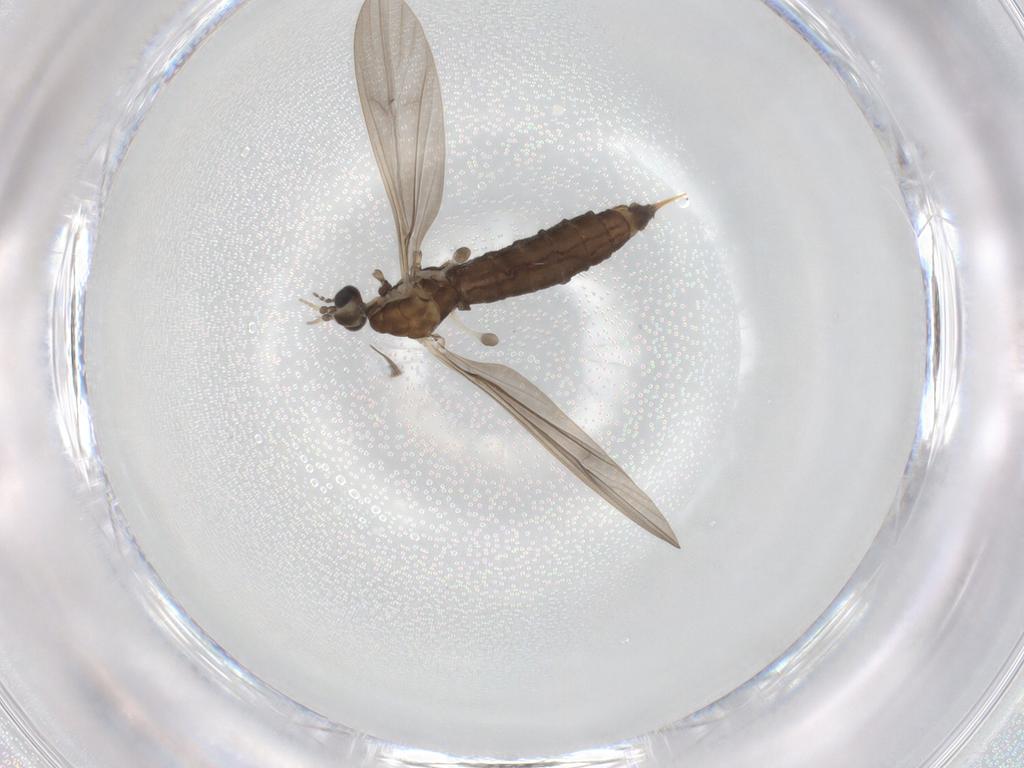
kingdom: Animalia
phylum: Arthropoda
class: Insecta
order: Diptera
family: Limoniidae
